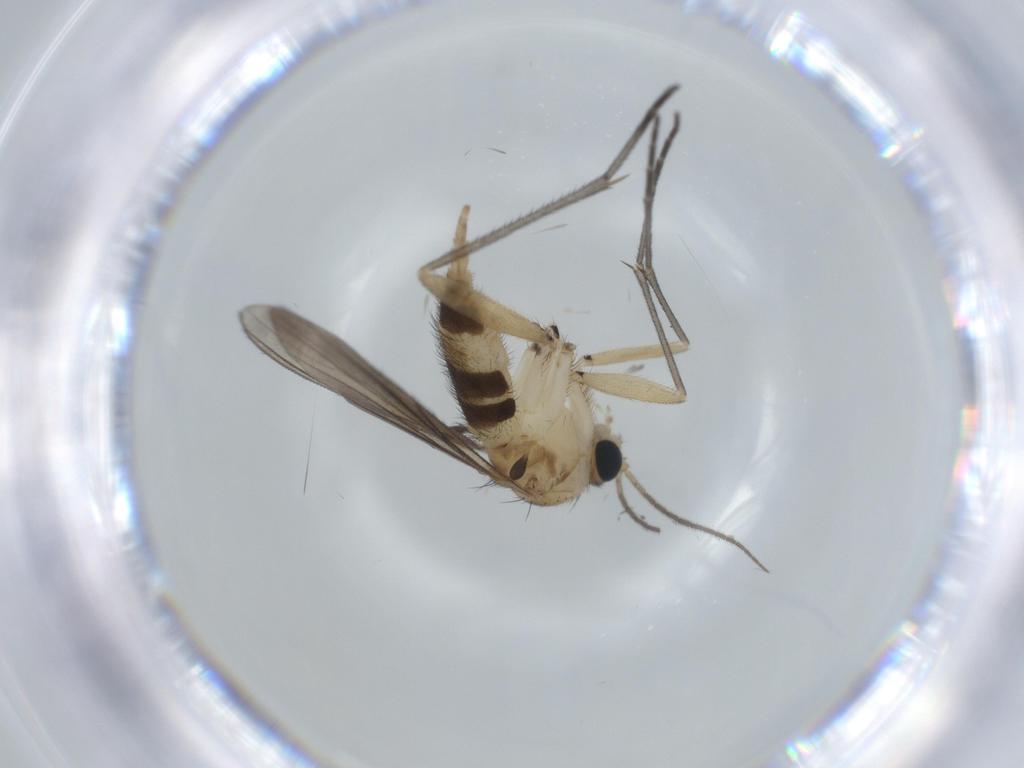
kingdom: Animalia
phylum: Arthropoda
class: Insecta
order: Diptera
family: Sciaridae
